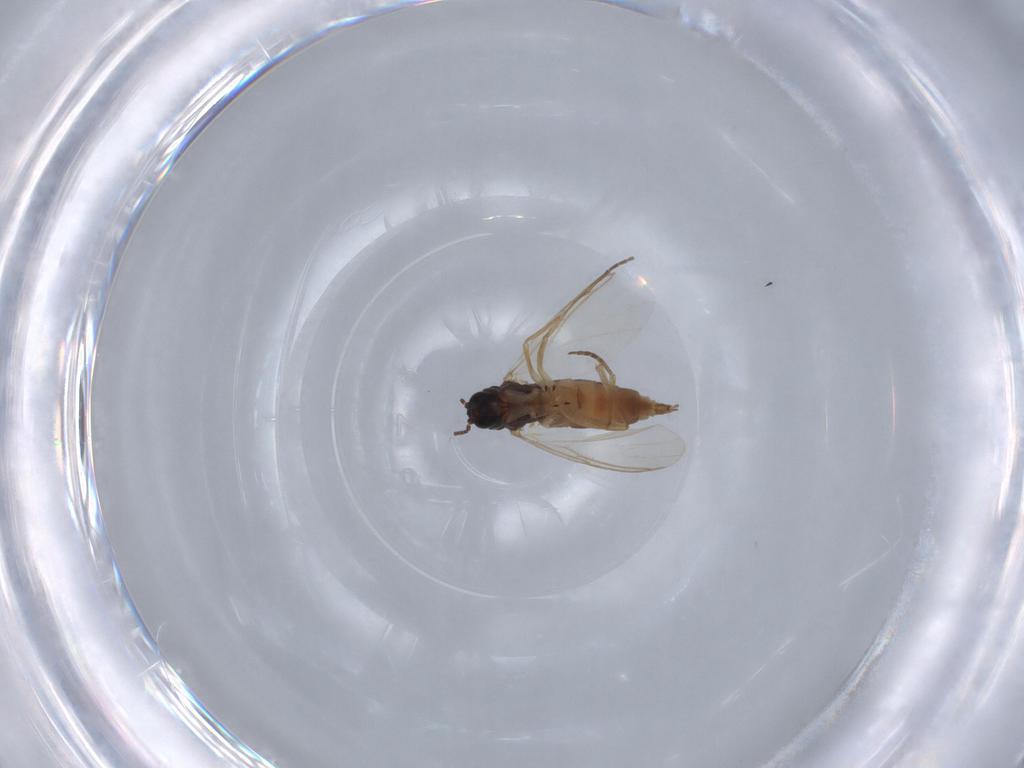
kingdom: Animalia
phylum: Arthropoda
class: Insecta
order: Diptera
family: Sciaridae
